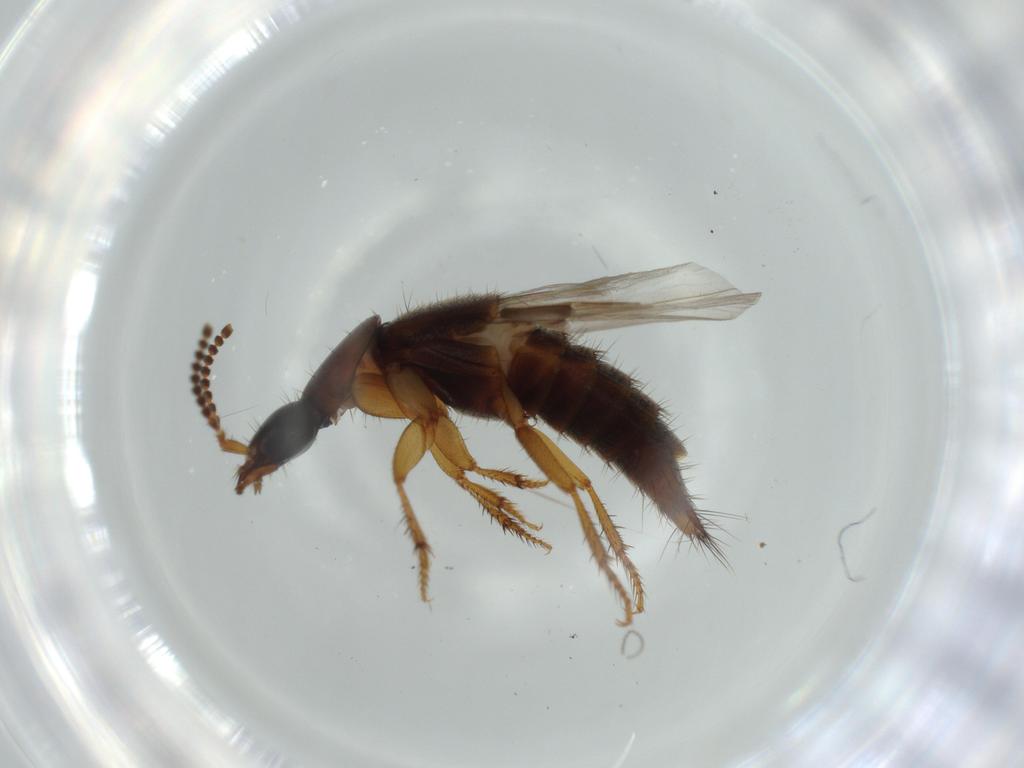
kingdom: Animalia
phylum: Arthropoda
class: Insecta
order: Coleoptera
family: Staphylinidae
